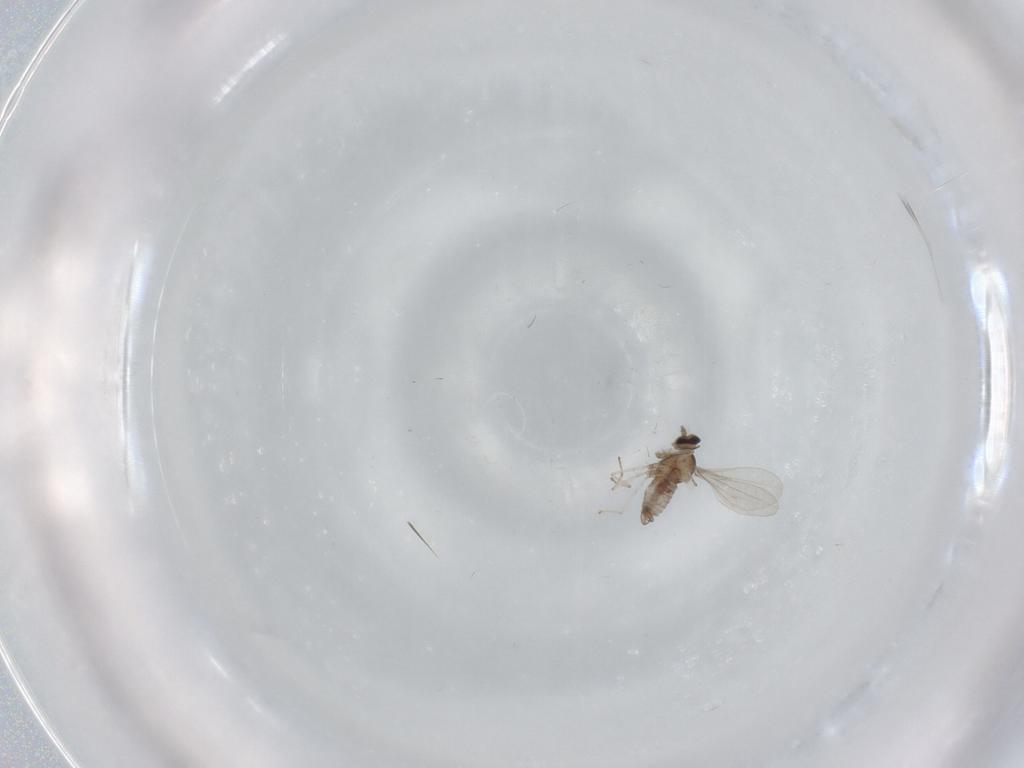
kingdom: Animalia
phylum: Arthropoda
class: Insecta
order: Diptera
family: Cecidomyiidae
